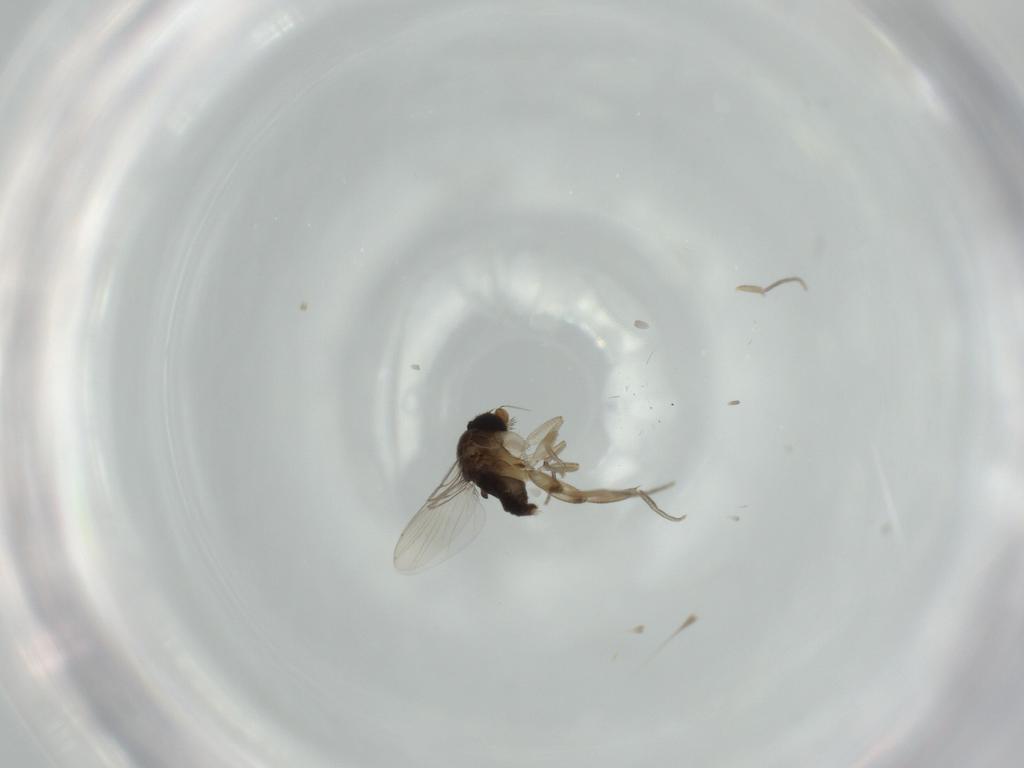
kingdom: Animalia
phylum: Arthropoda
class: Insecta
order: Diptera
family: Phoridae
